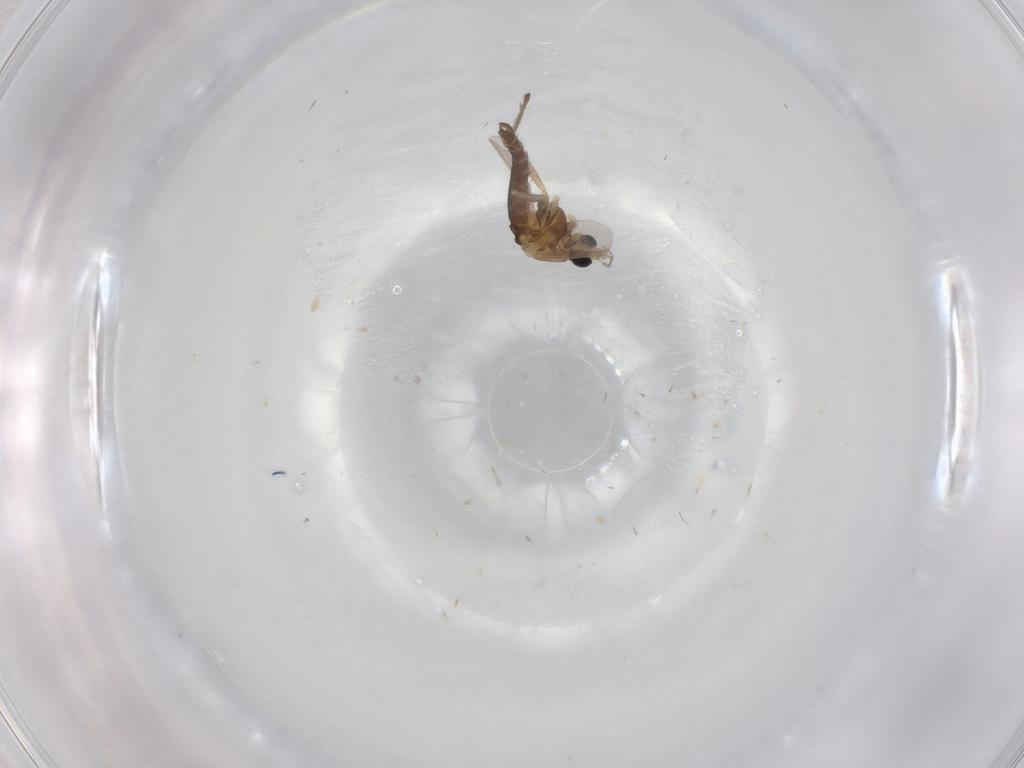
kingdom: Animalia
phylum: Arthropoda
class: Insecta
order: Diptera
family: Chironomidae
